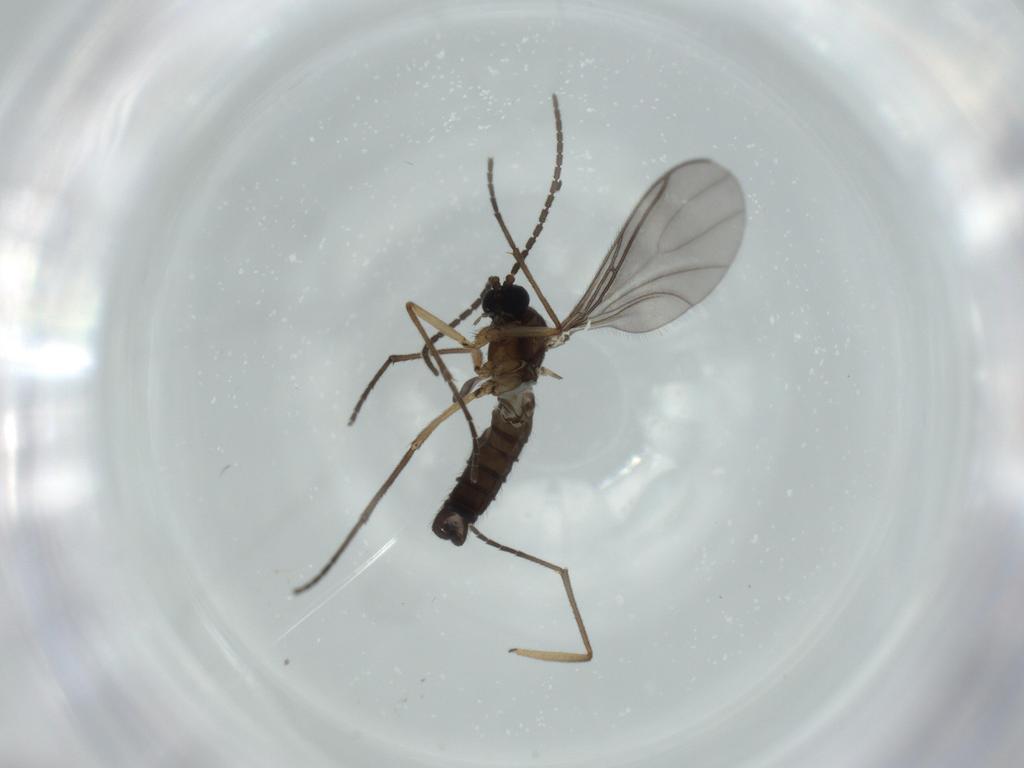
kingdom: Animalia
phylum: Arthropoda
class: Insecta
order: Diptera
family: Sciaridae
